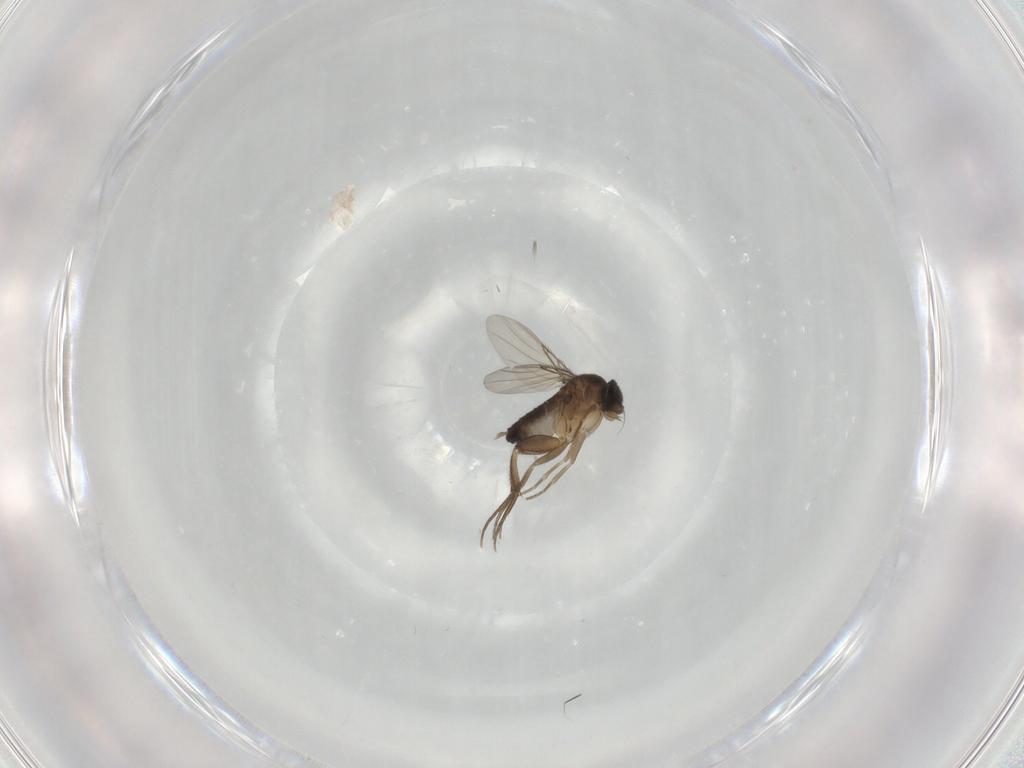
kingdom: Animalia
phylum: Arthropoda
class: Insecta
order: Diptera
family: Phoridae
